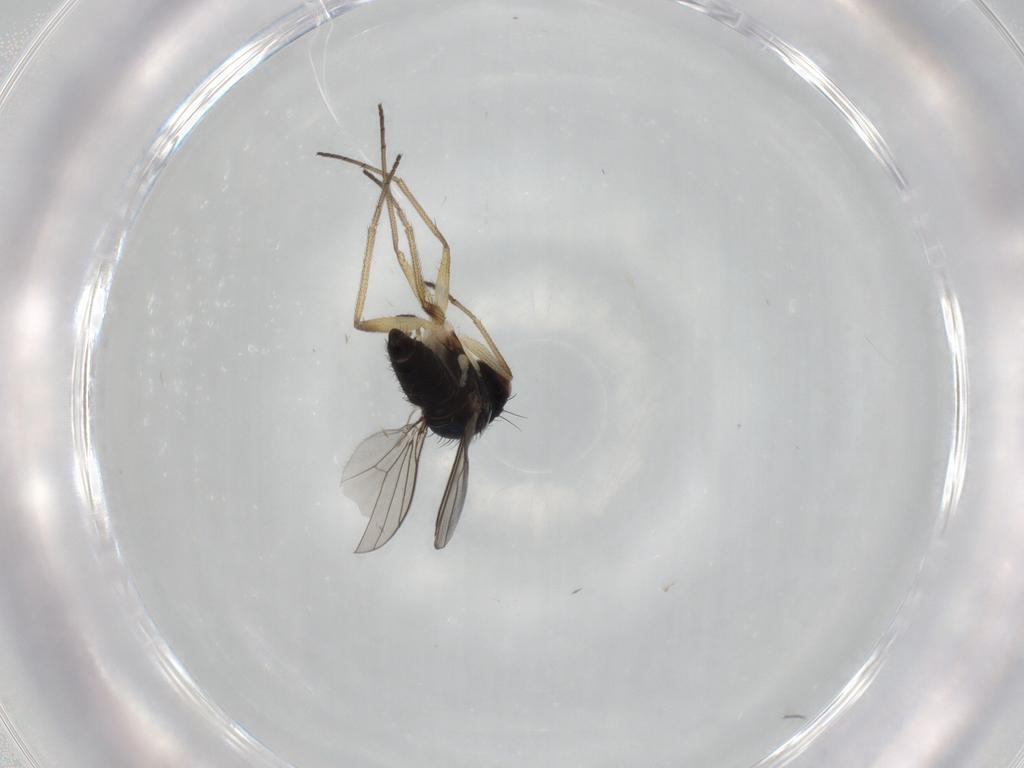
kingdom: Animalia
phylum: Arthropoda
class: Insecta
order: Diptera
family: Dolichopodidae
